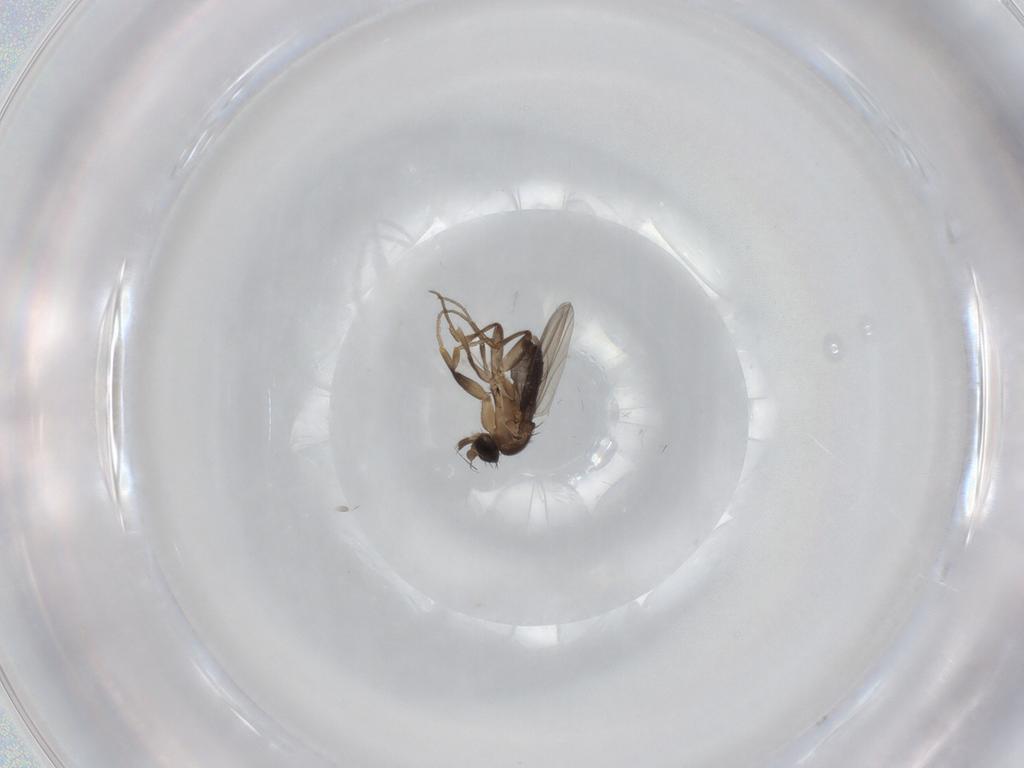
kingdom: Animalia
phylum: Arthropoda
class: Insecta
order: Diptera
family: Phoridae
